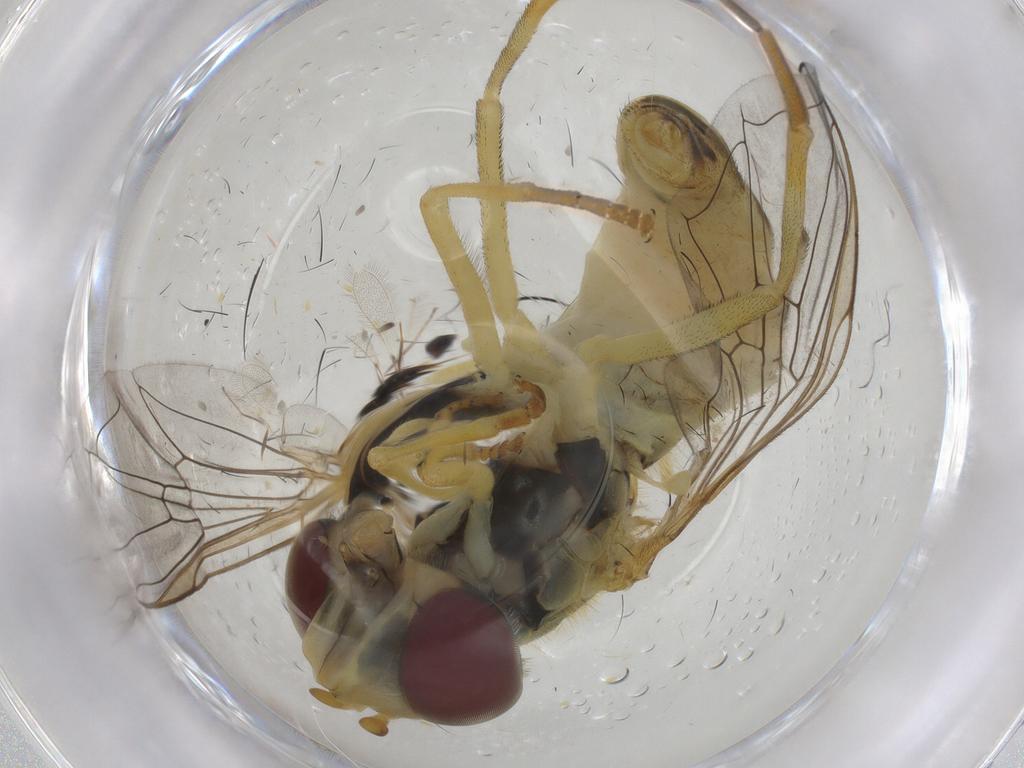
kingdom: Animalia
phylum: Arthropoda
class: Insecta
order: Diptera
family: Syrphidae
